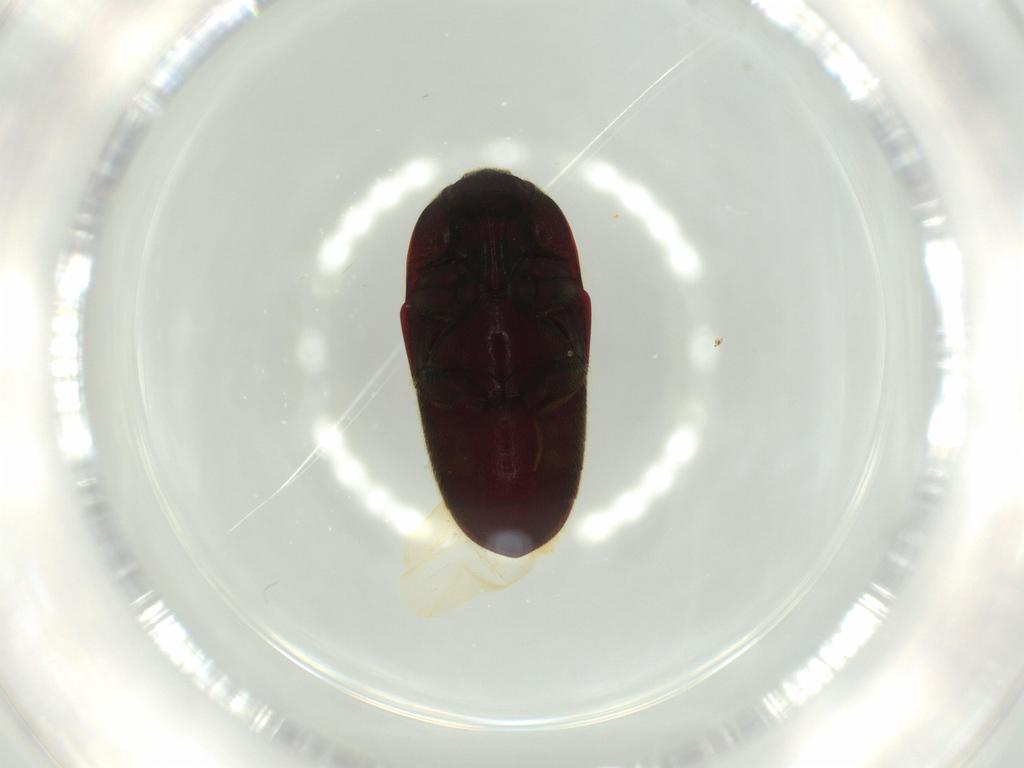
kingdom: Animalia
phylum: Arthropoda
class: Insecta
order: Coleoptera
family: Throscidae
